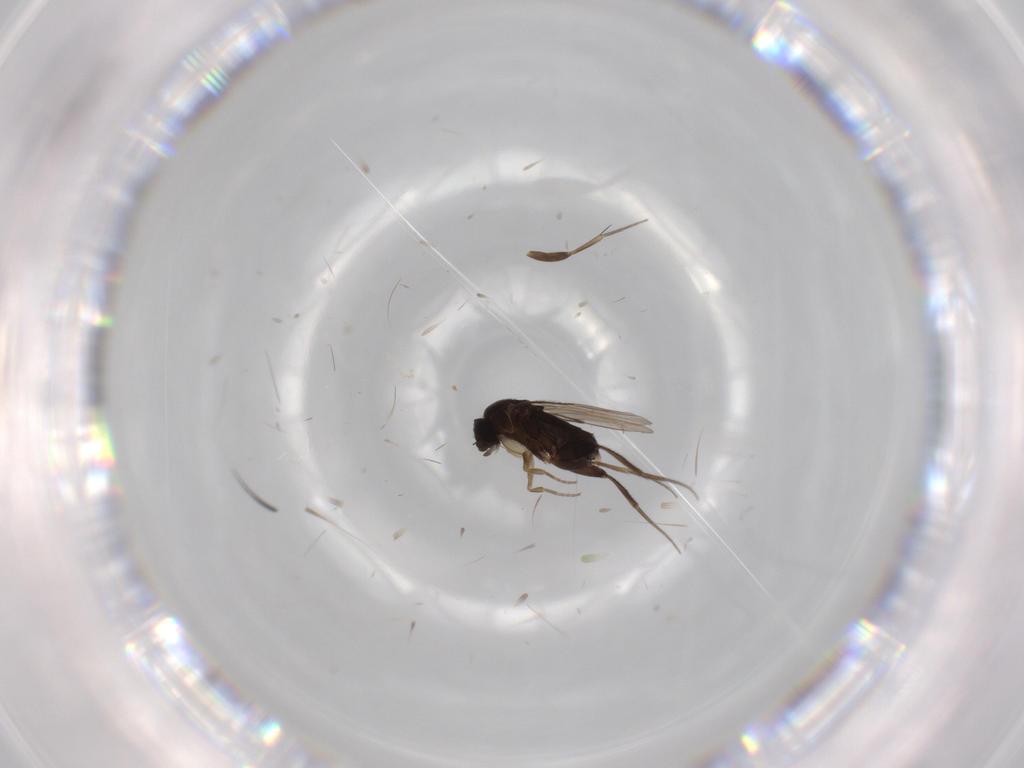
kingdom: Animalia
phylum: Arthropoda
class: Insecta
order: Diptera
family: Phoridae
